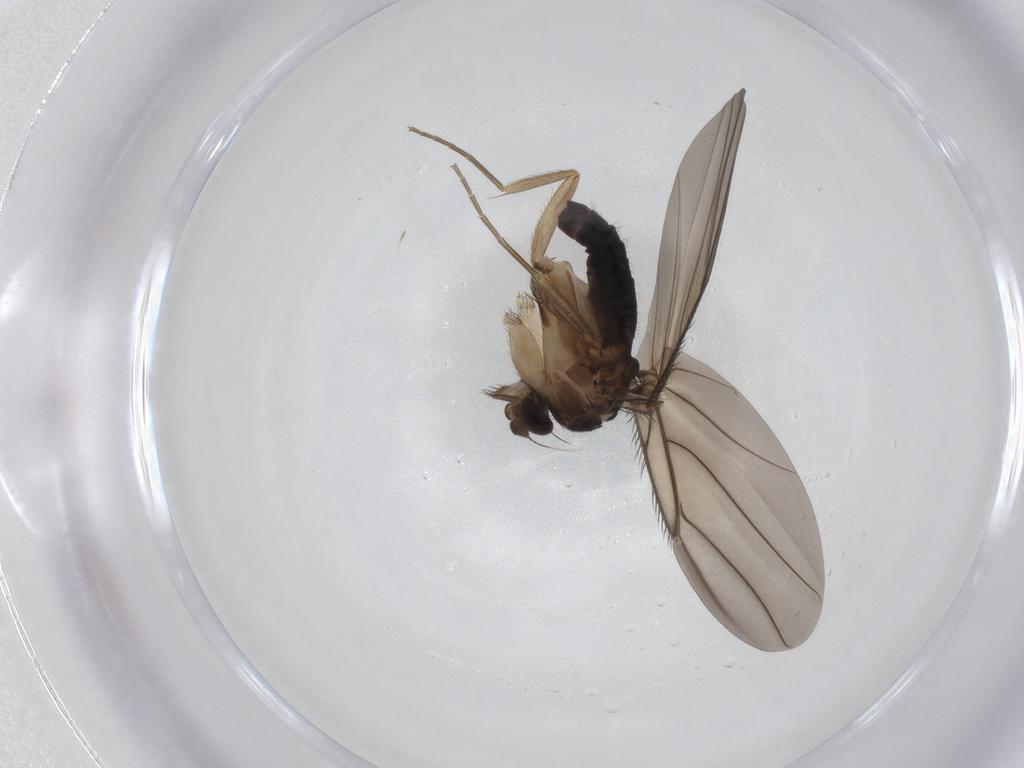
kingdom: Animalia
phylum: Arthropoda
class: Insecta
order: Diptera
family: Phoridae
